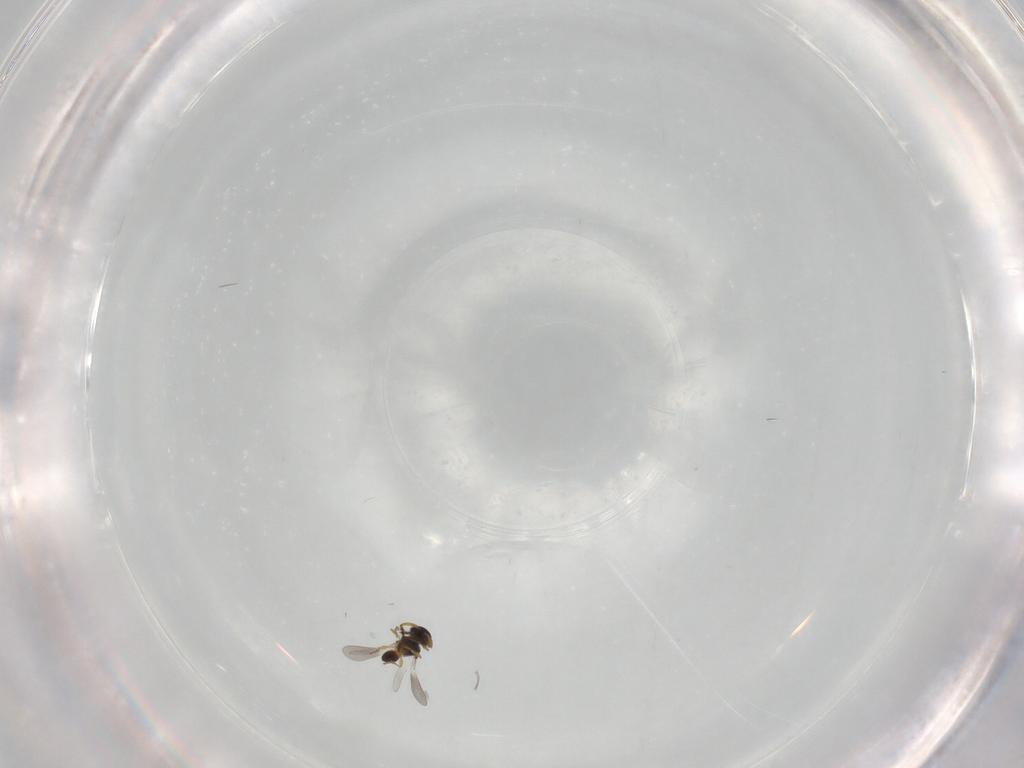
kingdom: Animalia
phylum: Arthropoda
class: Insecta
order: Hymenoptera
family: Platygastridae
